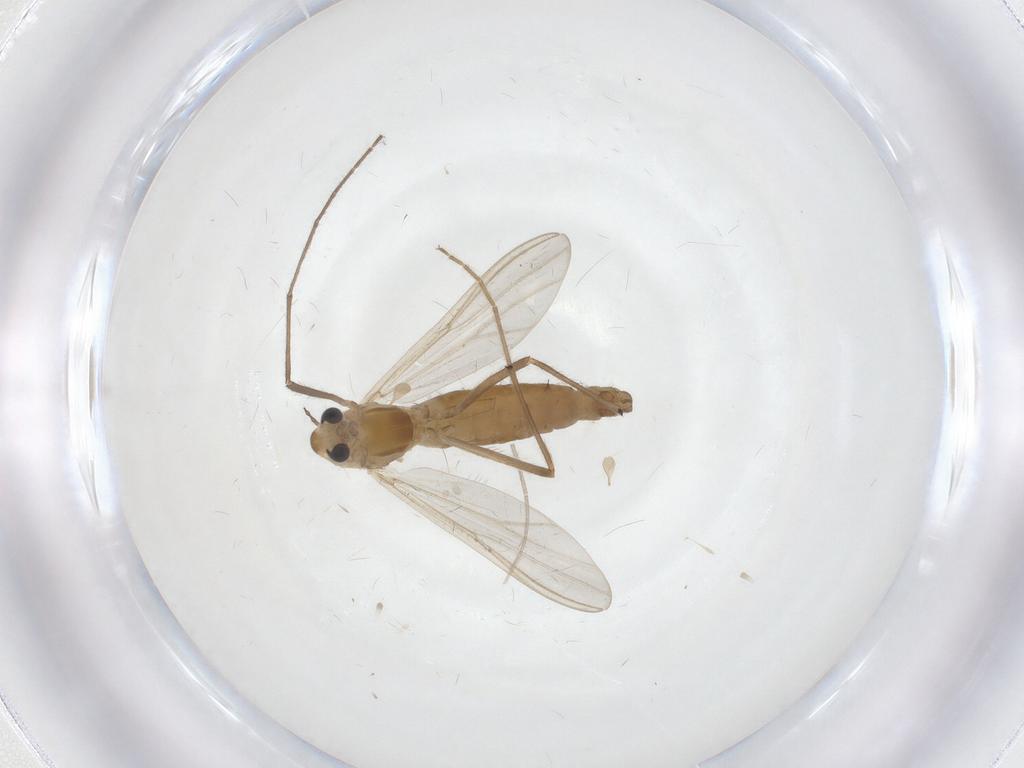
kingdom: Animalia
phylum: Arthropoda
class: Insecta
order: Diptera
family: Chironomidae
